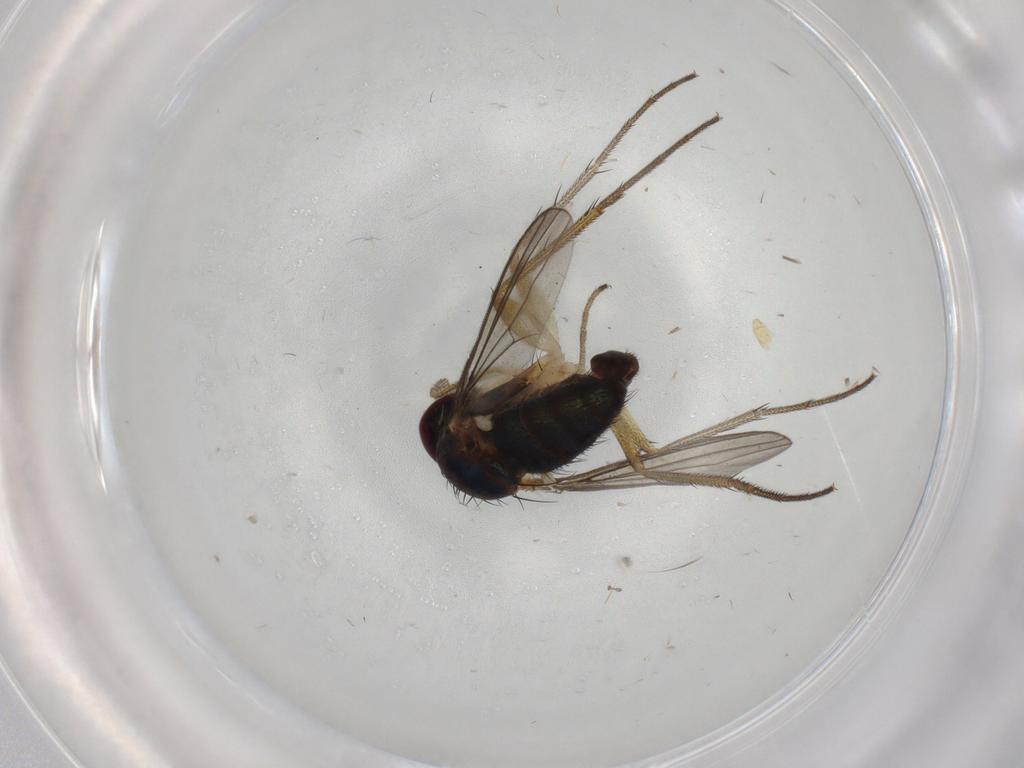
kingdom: Animalia
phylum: Arthropoda
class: Insecta
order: Diptera
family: Dolichopodidae
